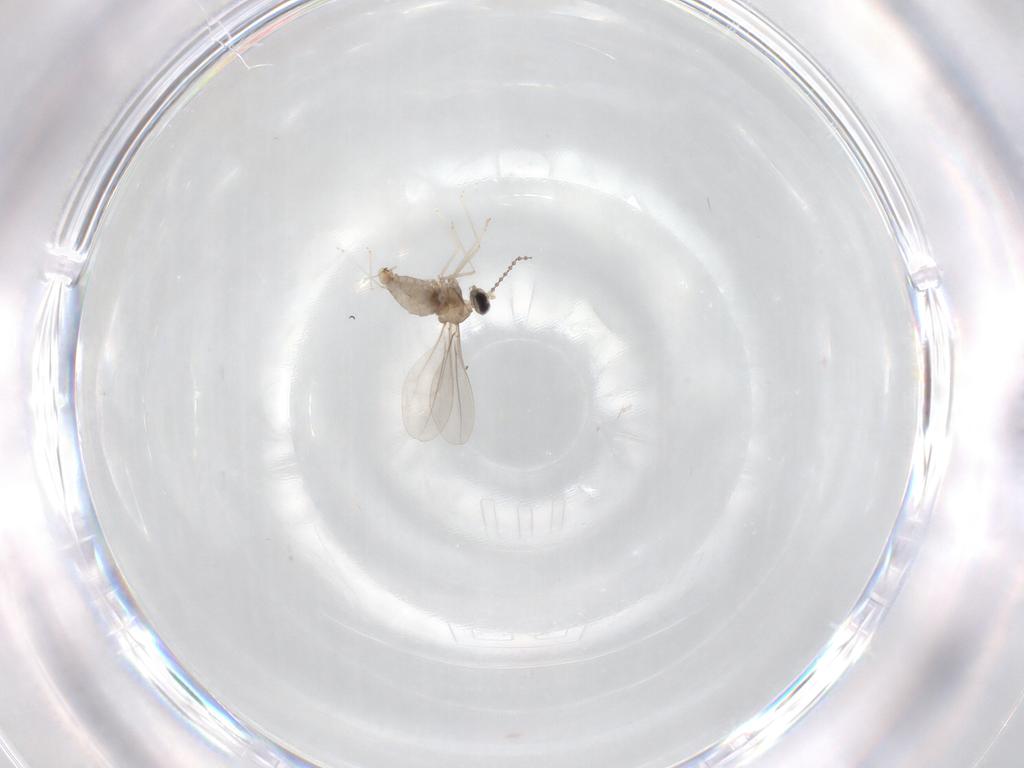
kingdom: Animalia
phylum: Arthropoda
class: Insecta
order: Diptera
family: Cecidomyiidae
